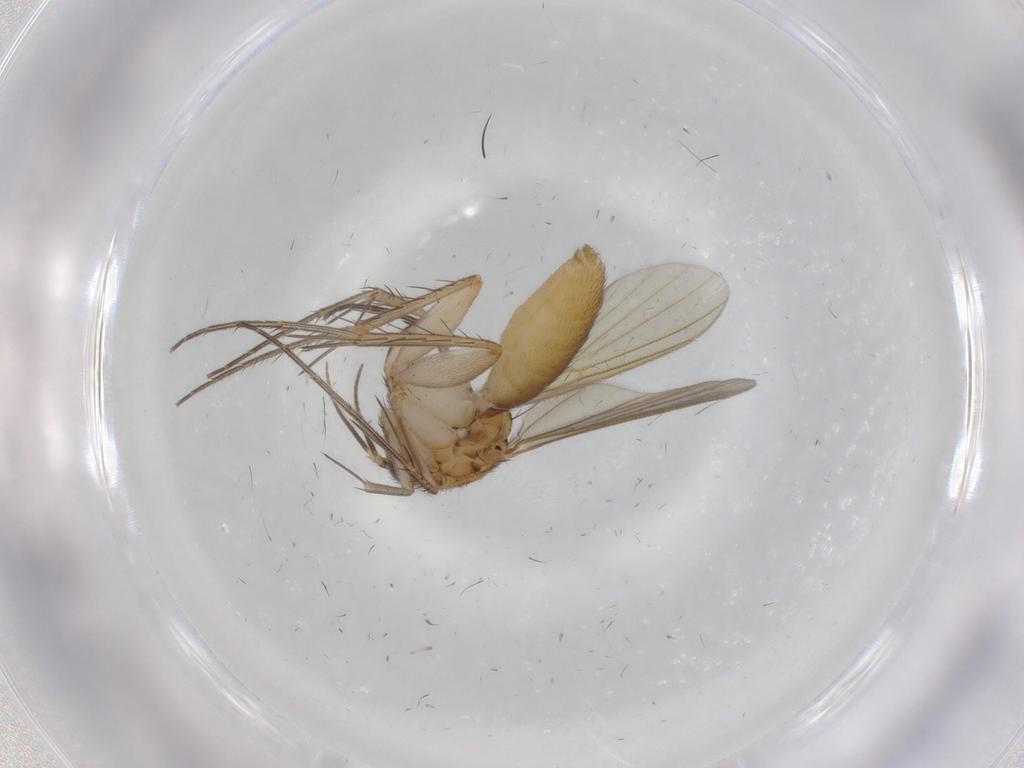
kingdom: Animalia
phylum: Arthropoda
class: Insecta
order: Diptera
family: Mycetophilidae
